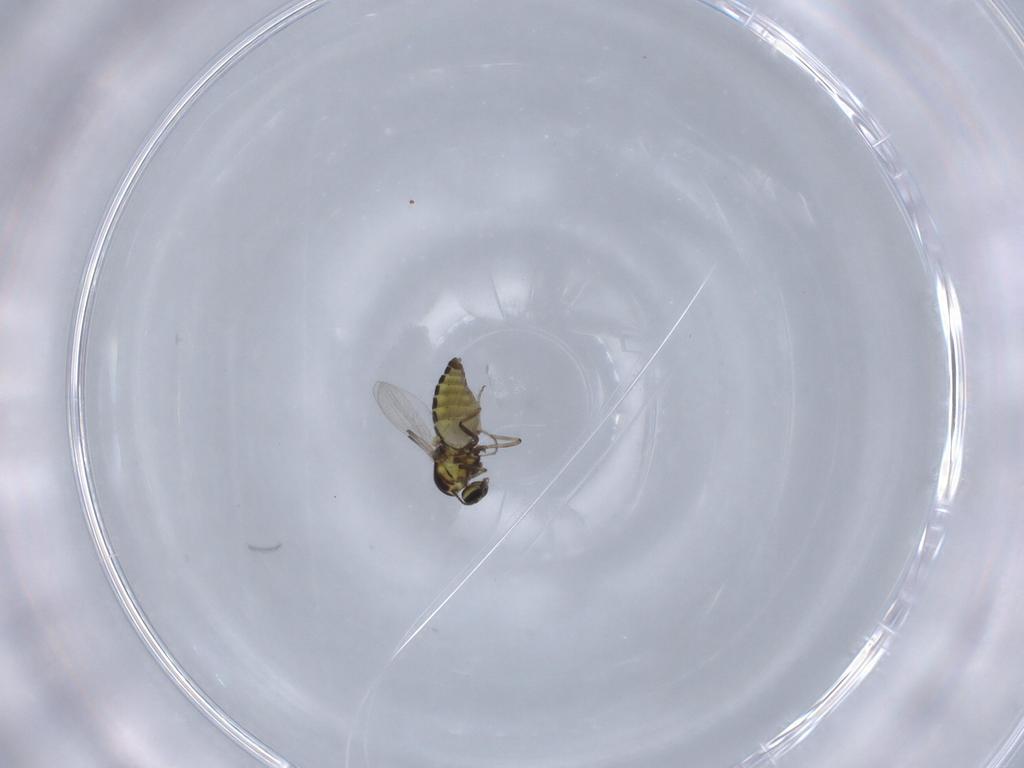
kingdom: Animalia
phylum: Arthropoda
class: Insecta
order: Diptera
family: Ceratopogonidae
